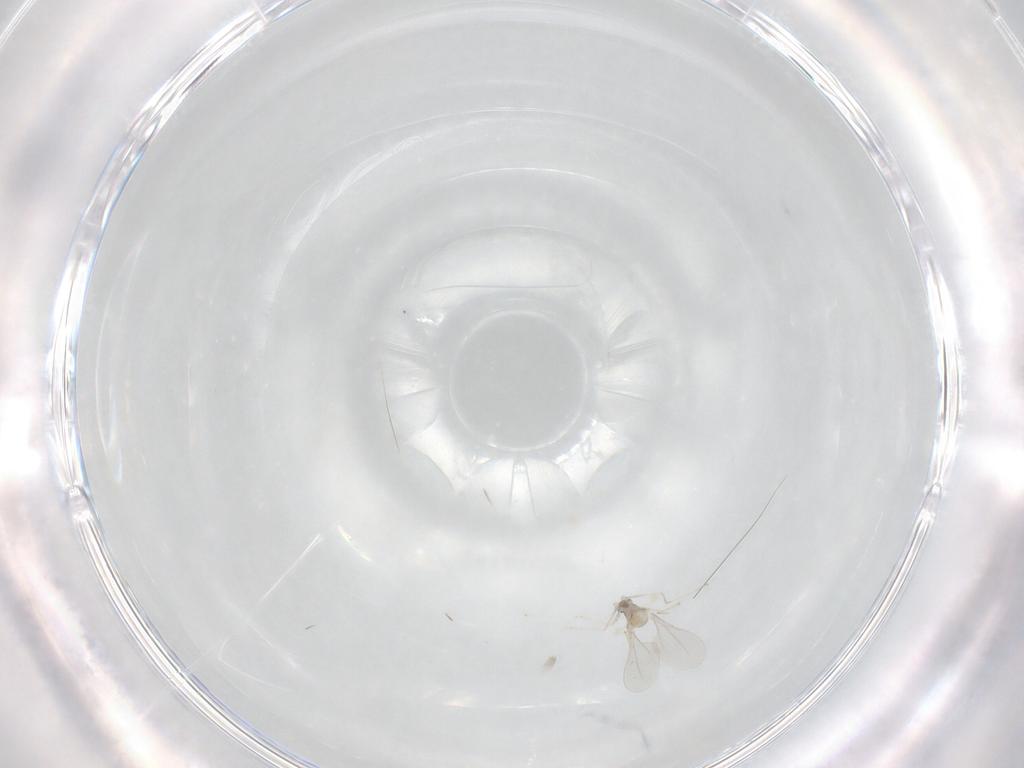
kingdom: Animalia
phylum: Arthropoda
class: Insecta
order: Diptera
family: Cecidomyiidae
